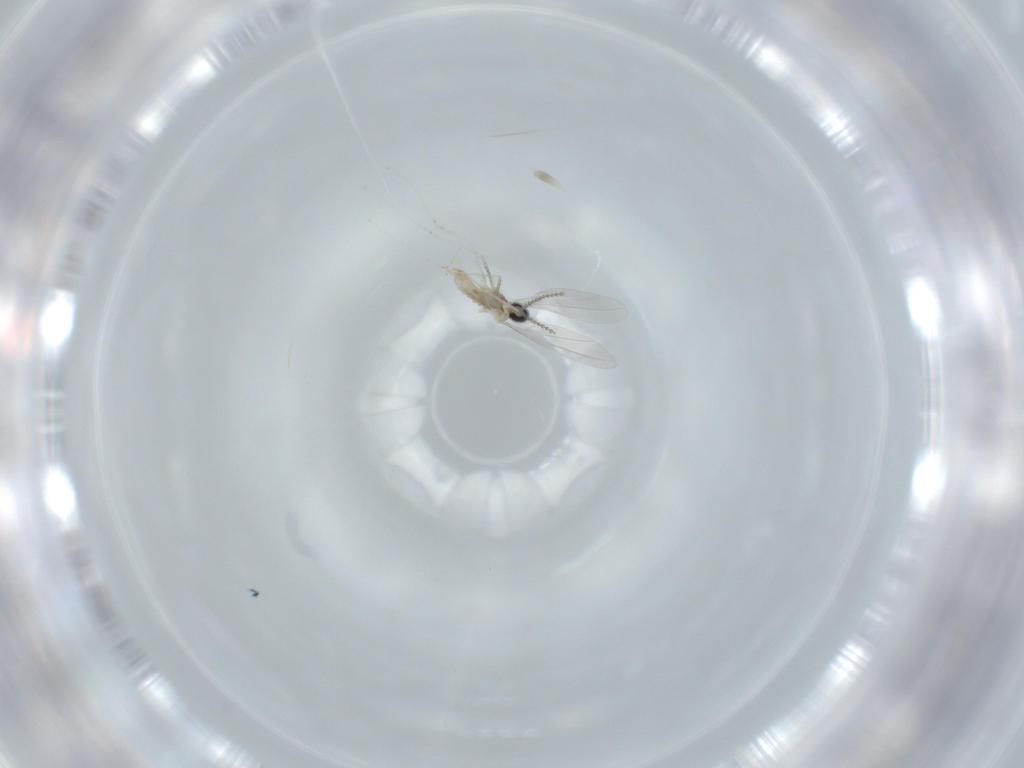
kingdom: Animalia
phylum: Arthropoda
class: Insecta
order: Diptera
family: Cecidomyiidae
